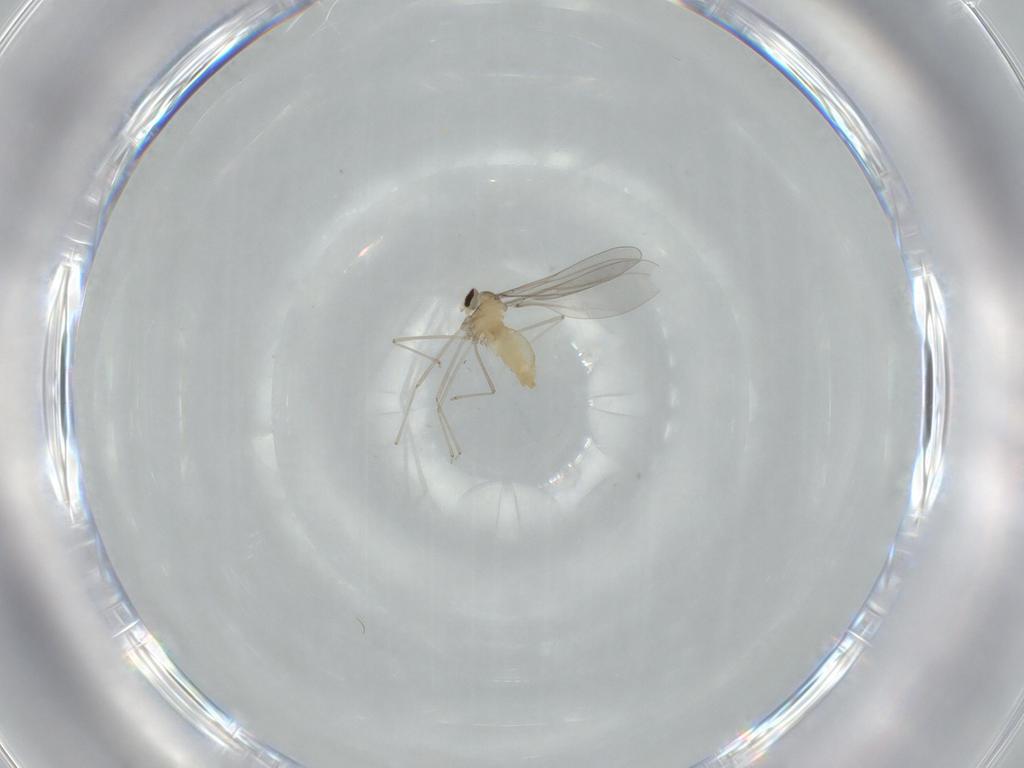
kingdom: Animalia
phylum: Arthropoda
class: Insecta
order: Diptera
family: Cecidomyiidae
